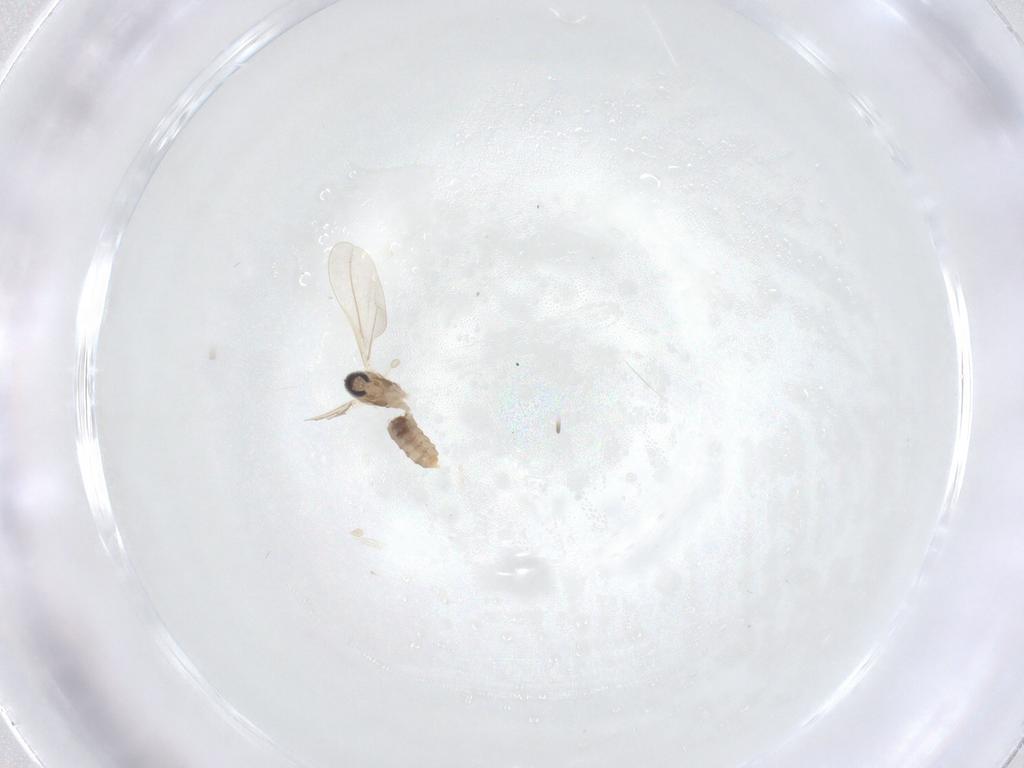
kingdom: Animalia
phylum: Arthropoda
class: Insecta
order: Diptera
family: Cecidomyiidae
